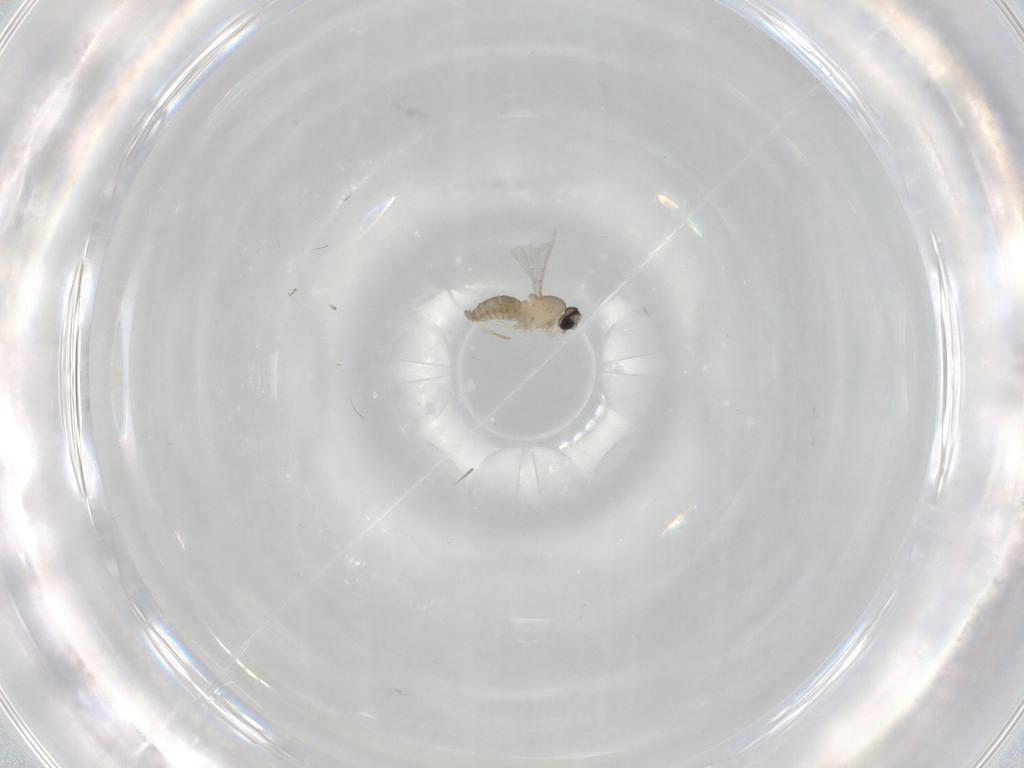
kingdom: Animalia
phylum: Arthropoda
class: Insecta
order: Diptera
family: Cecidomyiidae
